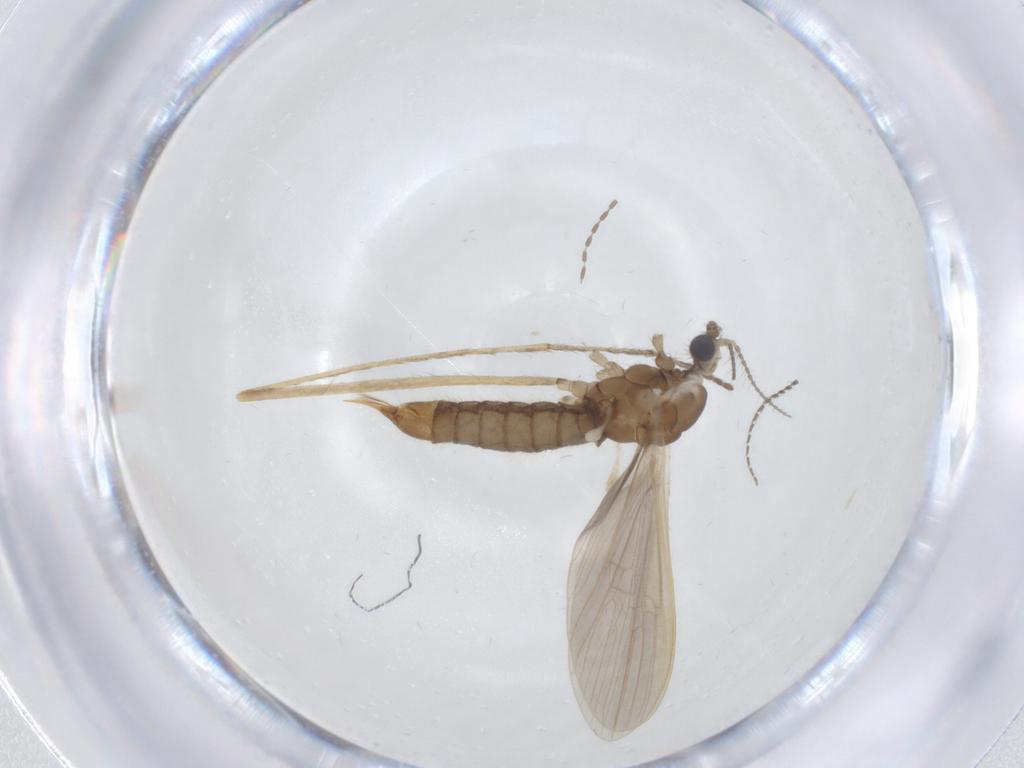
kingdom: Animalia
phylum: Arthropoda
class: Insecta
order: Diptera
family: Limoniidae
